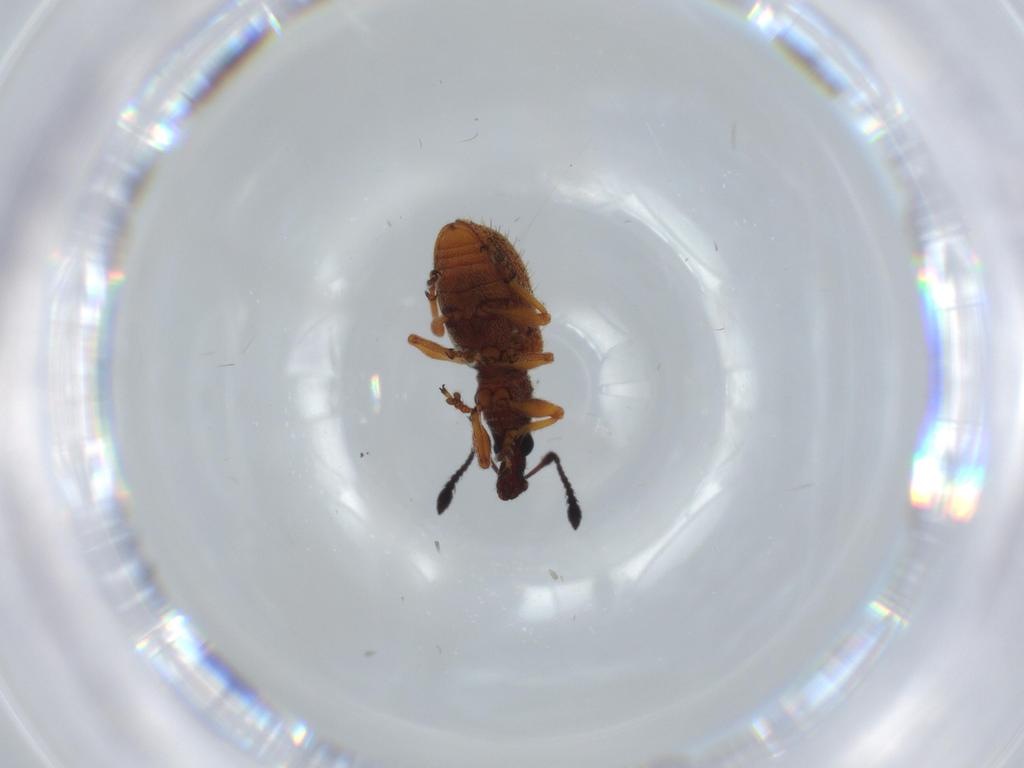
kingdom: Animalia
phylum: Arthropoda
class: Insecta
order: Coleoptera
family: Curculionidae
